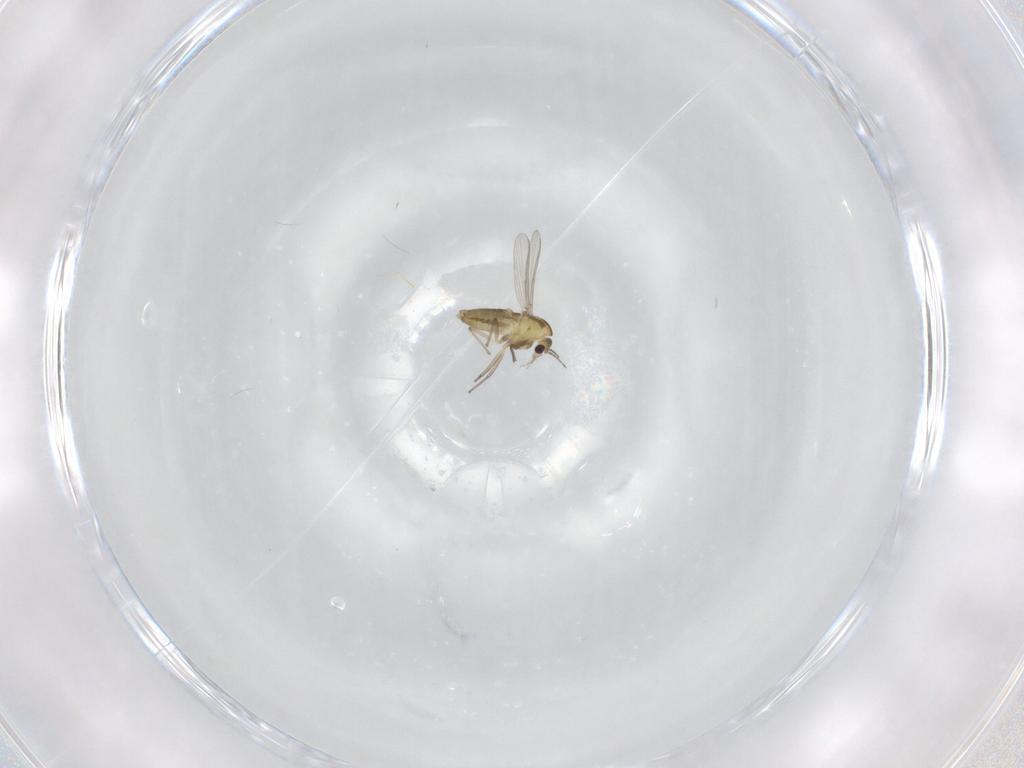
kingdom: Animalia
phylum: Arthropoda
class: Insecta
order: Diptera
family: Chironomidae
